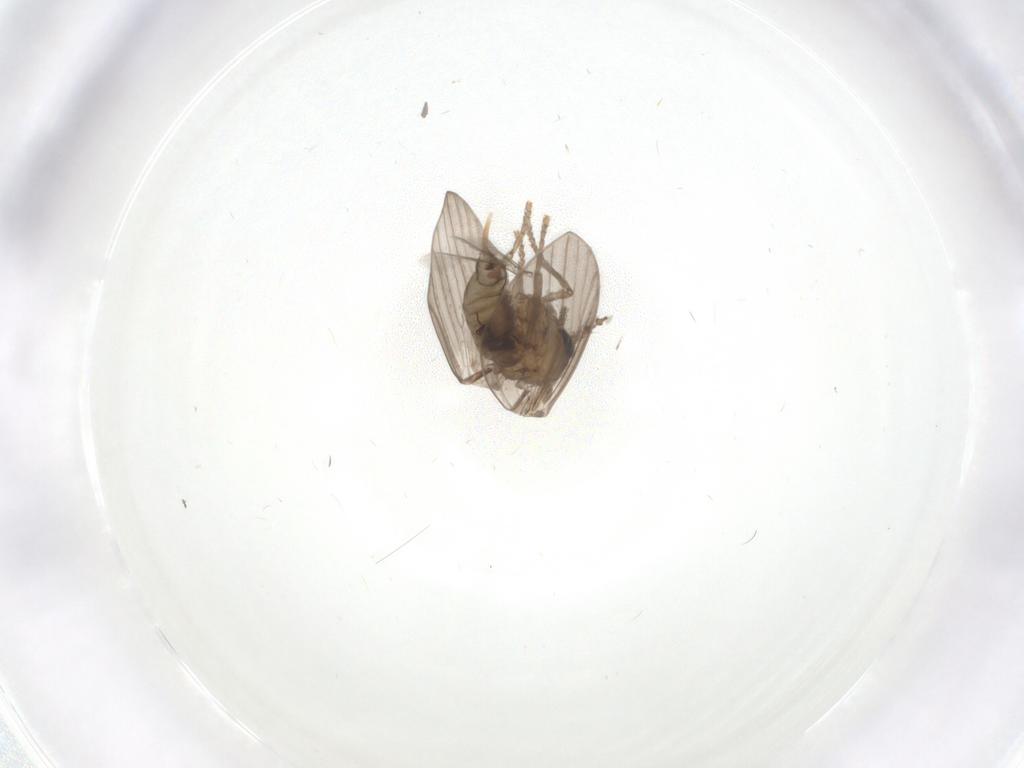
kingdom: Animalia
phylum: Arthropoda
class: Insecta
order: Diptera
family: Psychodidae
